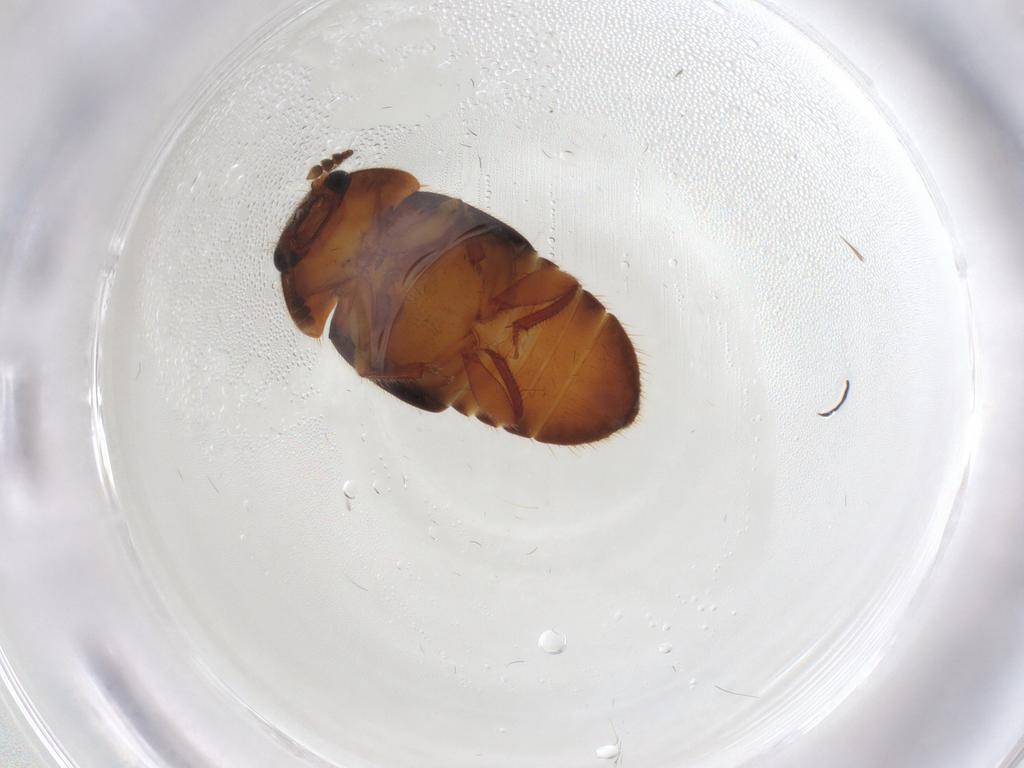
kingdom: Animalia
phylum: Arthropoda
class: Insecta
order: Coleoptera
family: Nitidulidae
